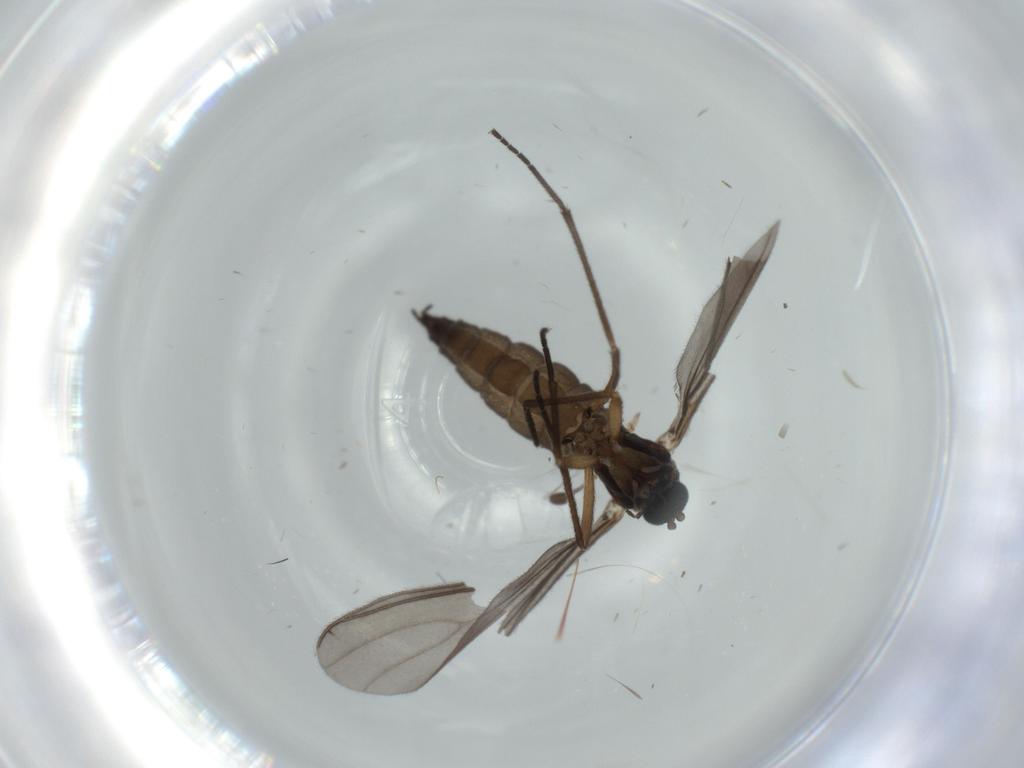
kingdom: Animalia
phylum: Arthropoda
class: Insecta
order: Diptera
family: Sciaridae
